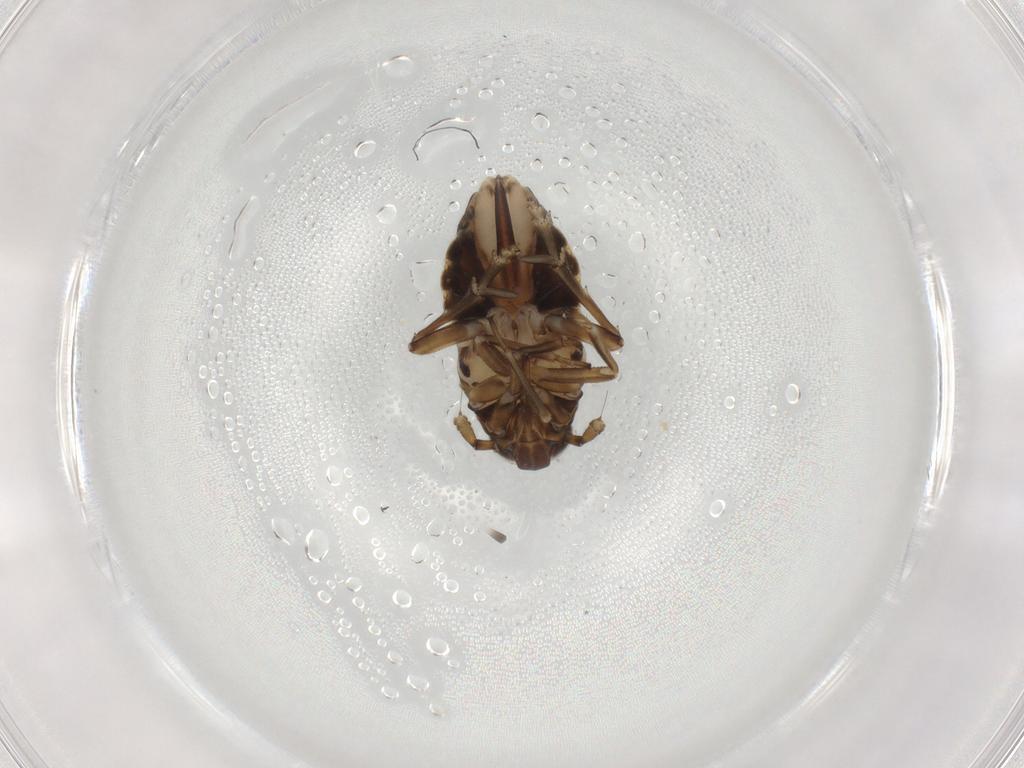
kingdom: Animalia
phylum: Arthropoda
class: Insecta
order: Hemiptera
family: Delphacidae
